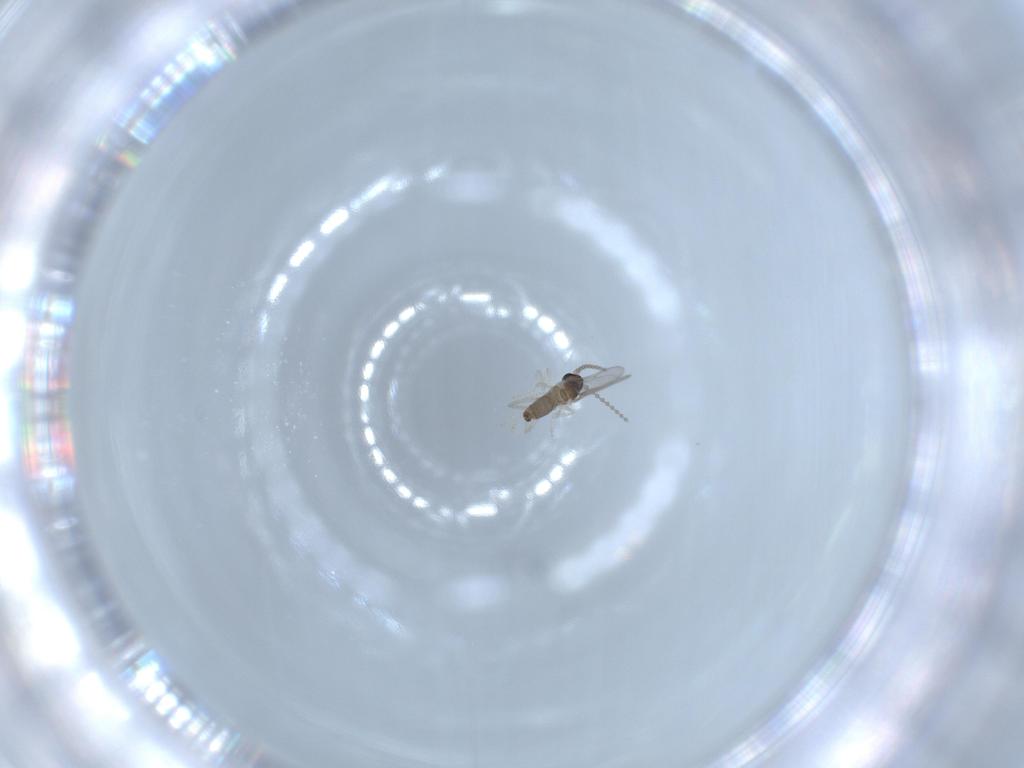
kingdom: Animalia
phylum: Arthropoda
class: Insecta
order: Diptera
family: Cecidomyiidae
